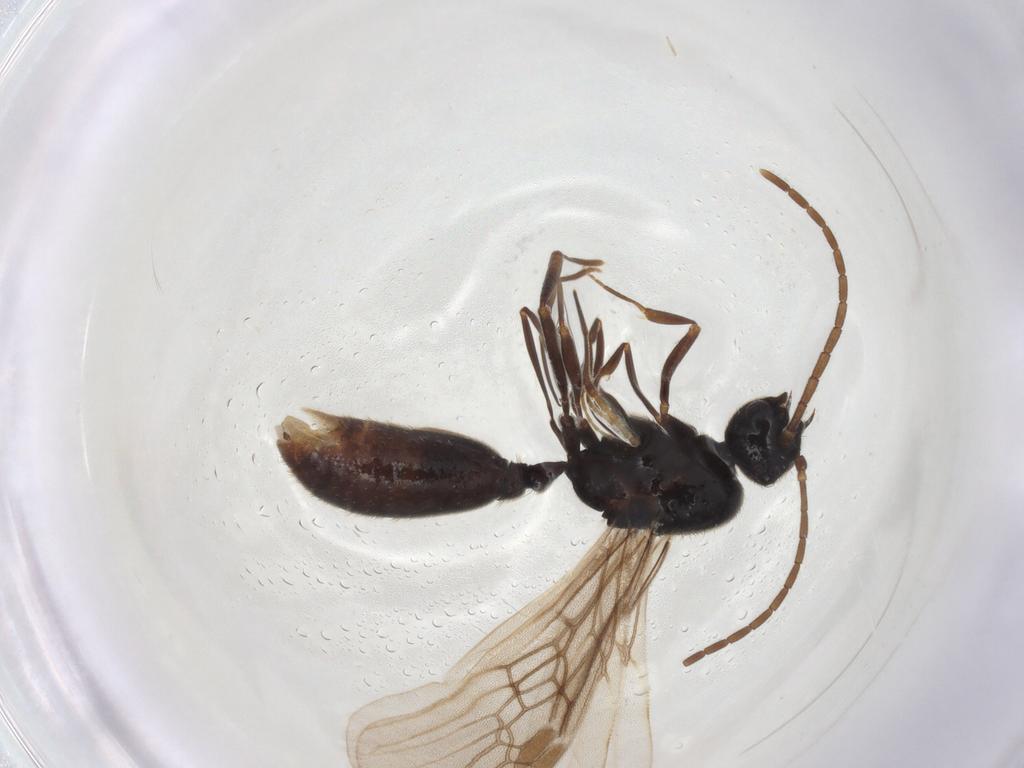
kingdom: Animalia
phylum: Arthropoda
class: Insecta
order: Hymenoptera
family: Formicidae
